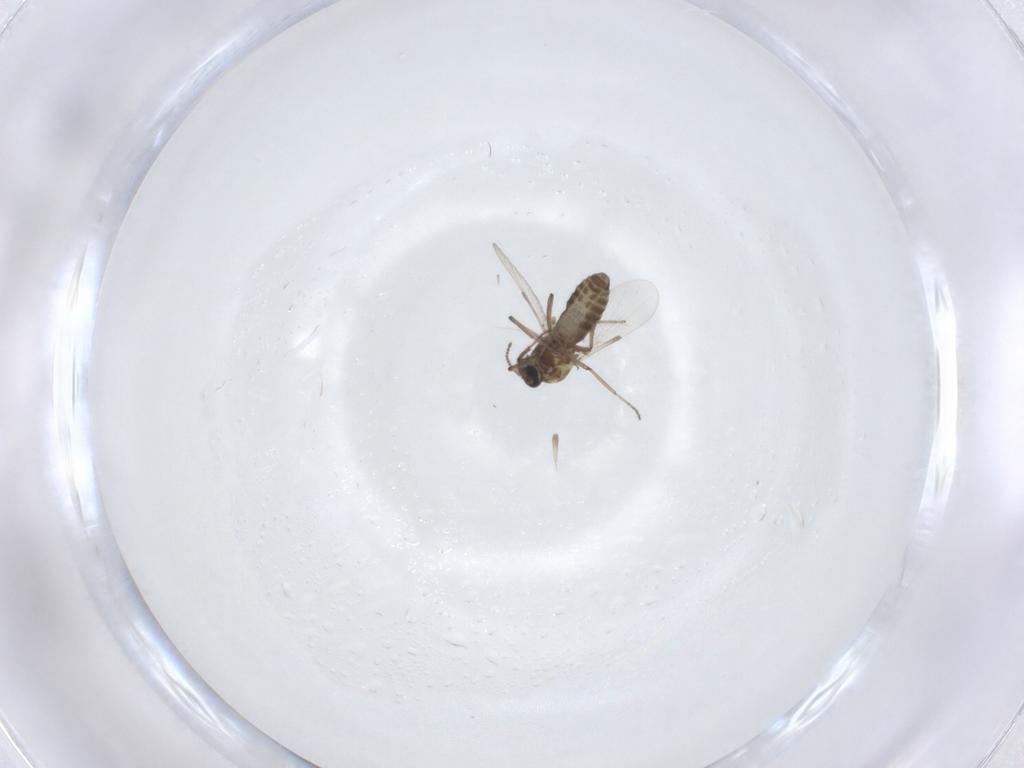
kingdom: Animalia
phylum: Arthropoda
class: Insecta
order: Diptera
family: Ceratopogonidae
